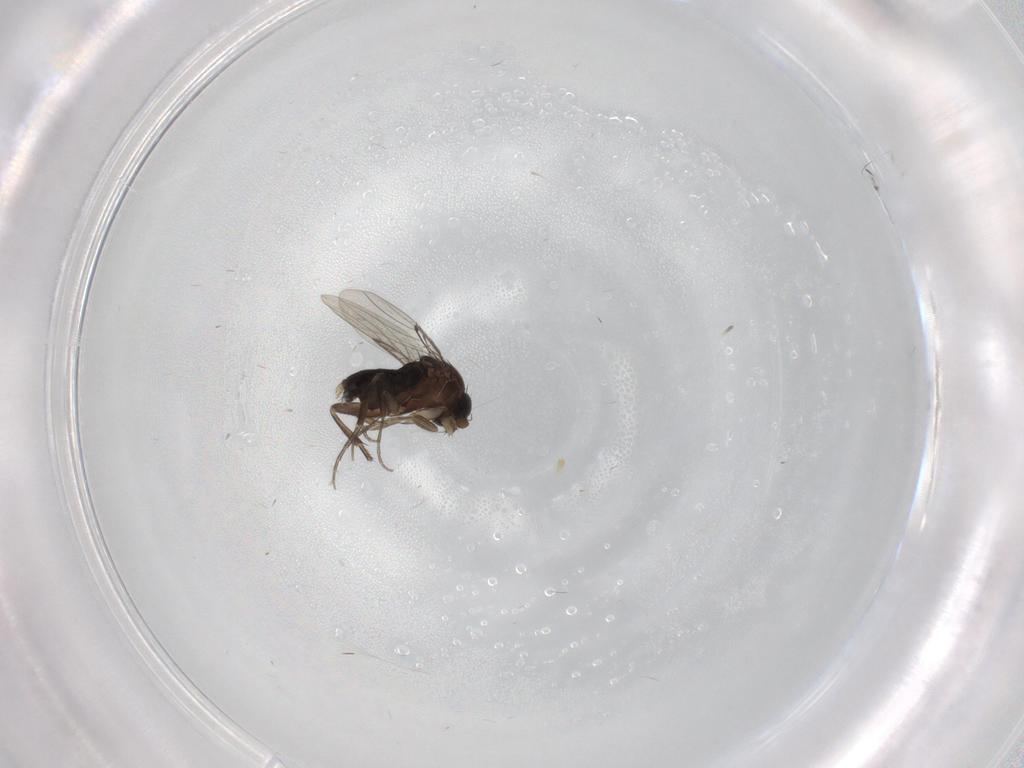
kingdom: Animalia
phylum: Arthropoda
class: Insecta
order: Diptera
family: Phoridae
